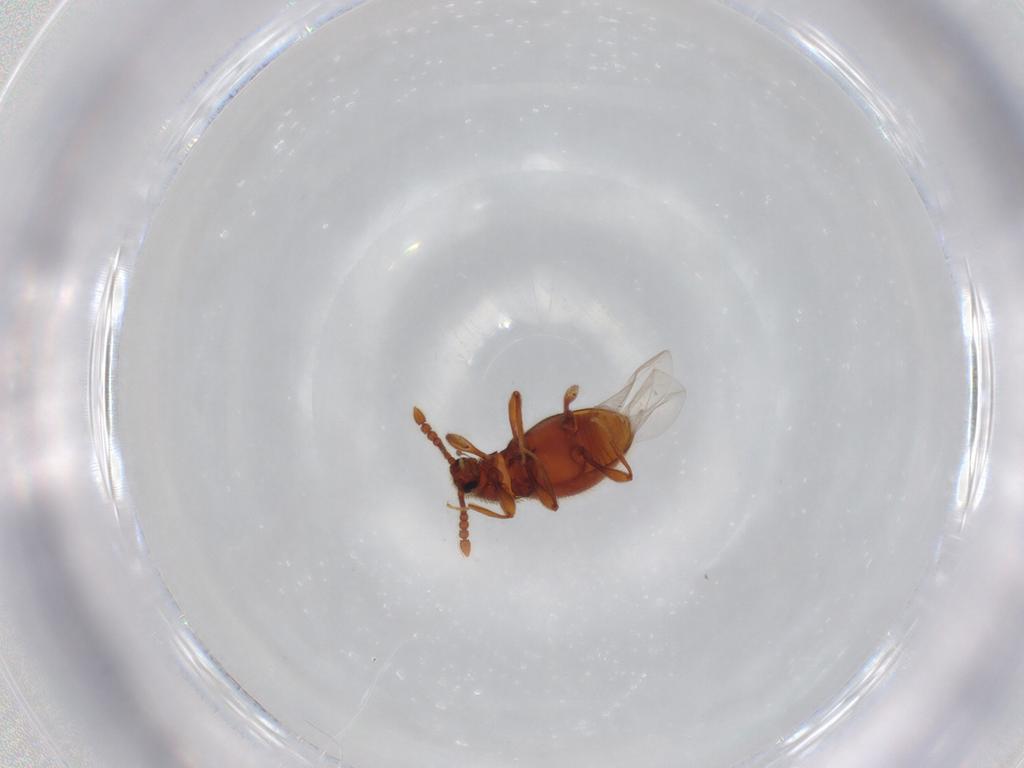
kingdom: Animalia
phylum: Arthropoda
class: Insecta
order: Coleoptera
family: Staphylinidae
